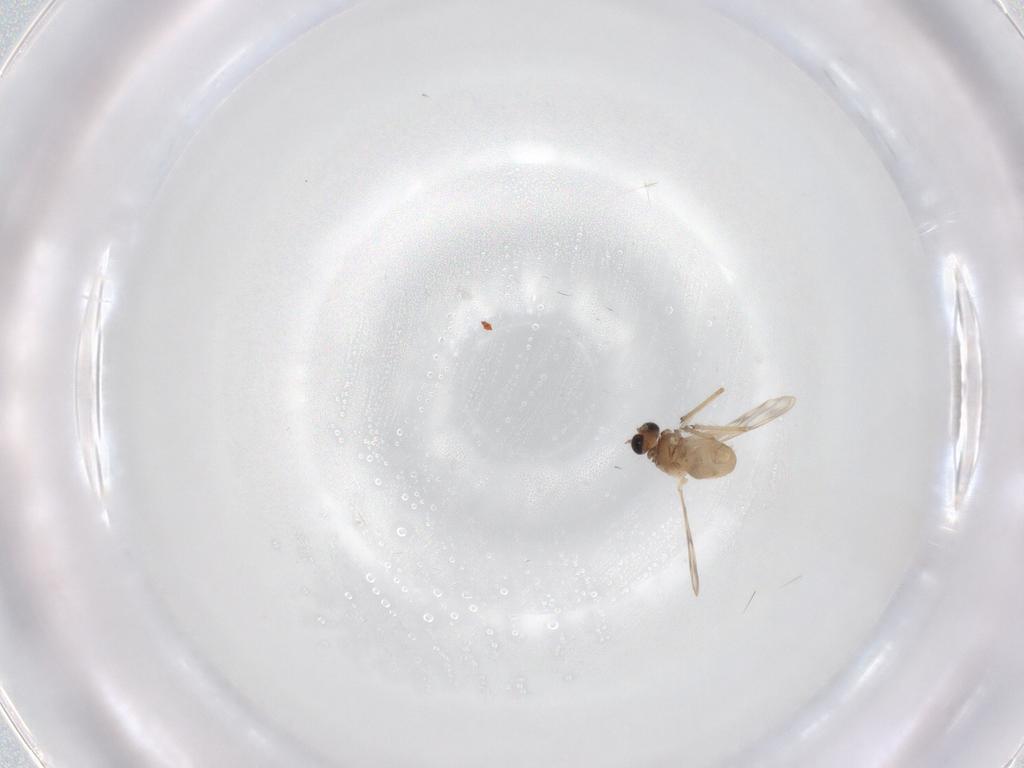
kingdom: Animalia
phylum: Arthropoda
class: Insecta
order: Diptera
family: Chironomidae
